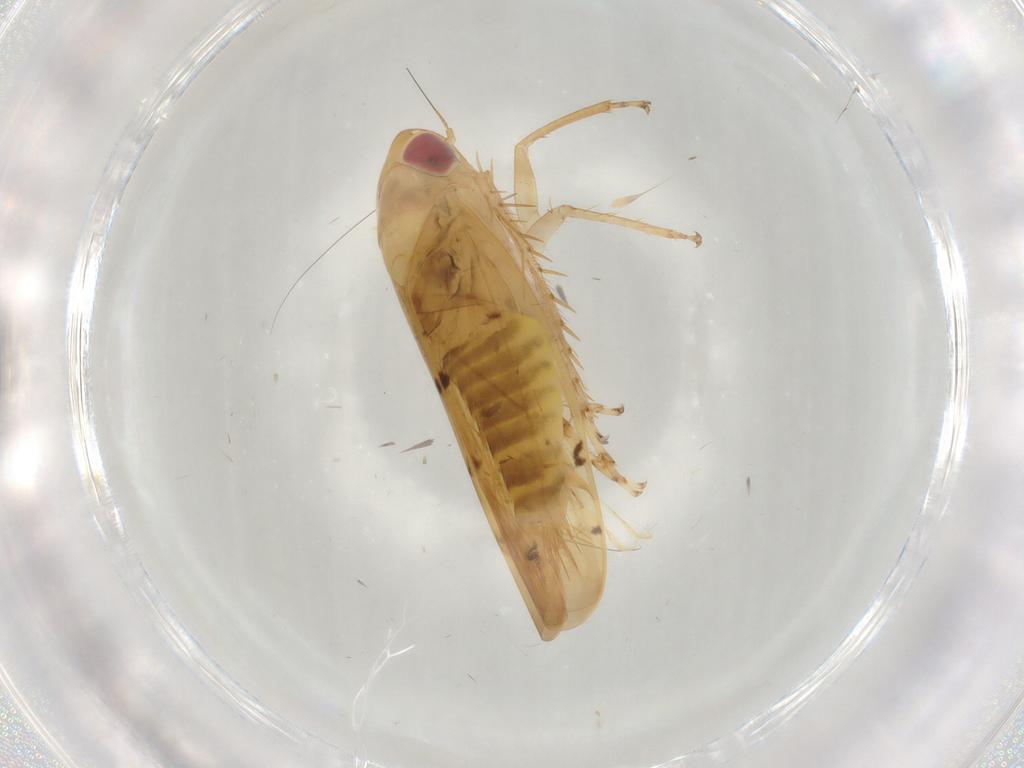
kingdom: Animalia
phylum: Arthropoda
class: Insecta
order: Hemiptera
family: Cicadellidae
